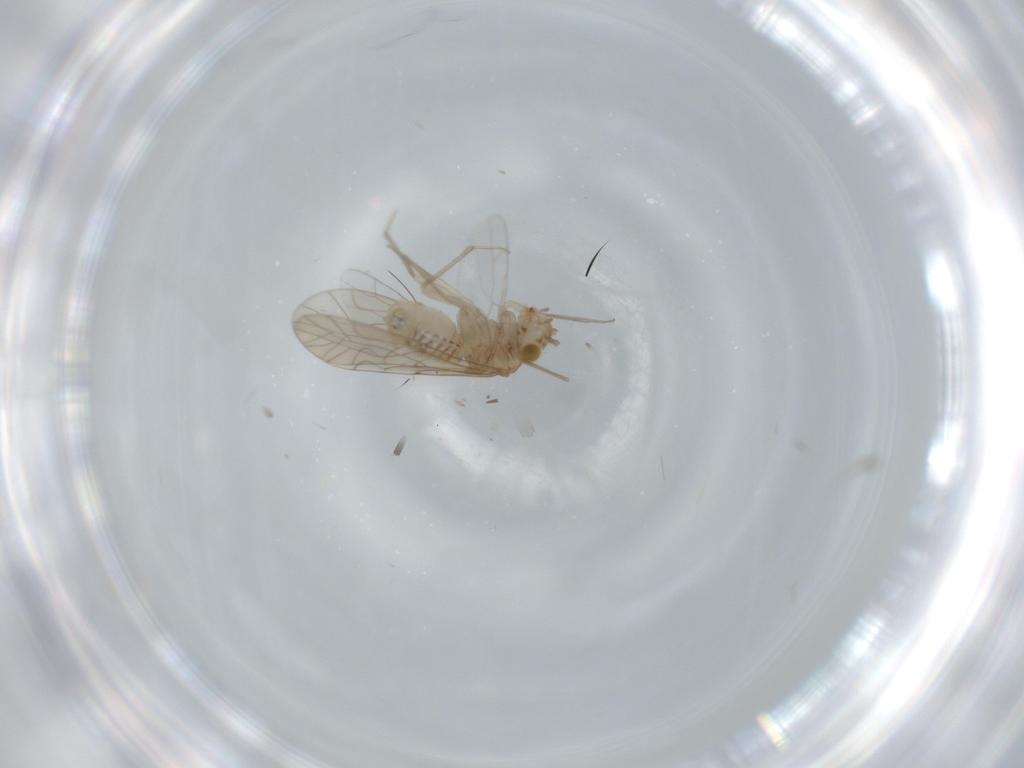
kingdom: Animalia
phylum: Arthropoda
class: Insecta
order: Psocodea
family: Lachesillidae
